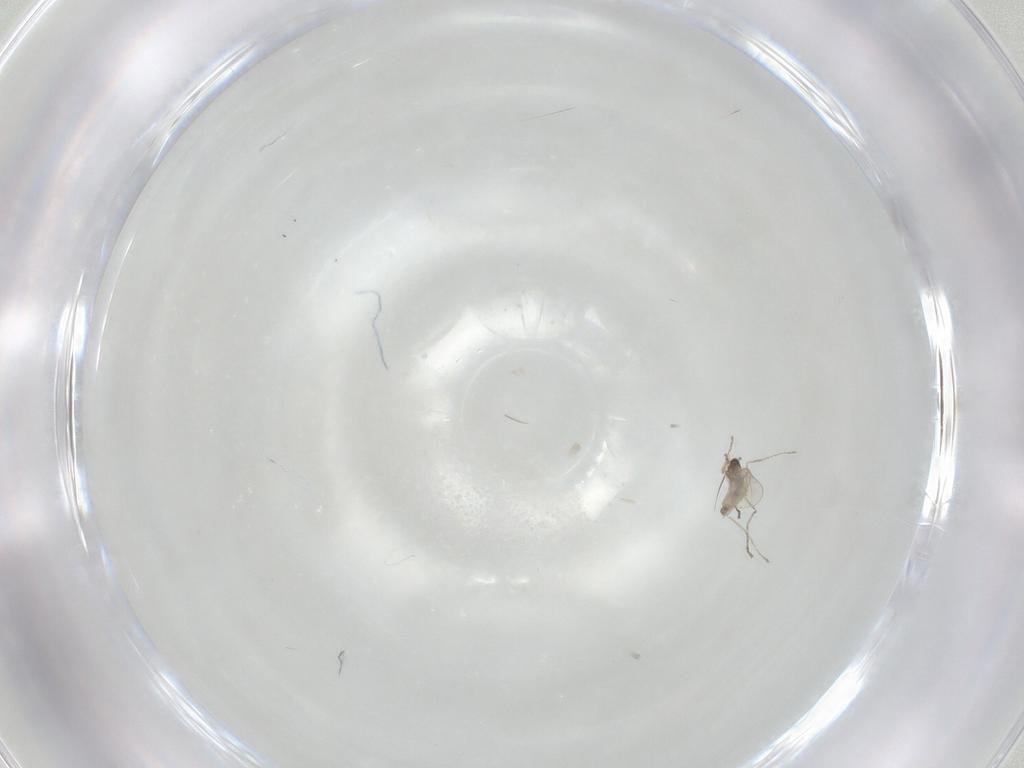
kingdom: Animalia
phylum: Arthropoda
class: Insecta
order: Diptera
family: Cecidomyiidae
